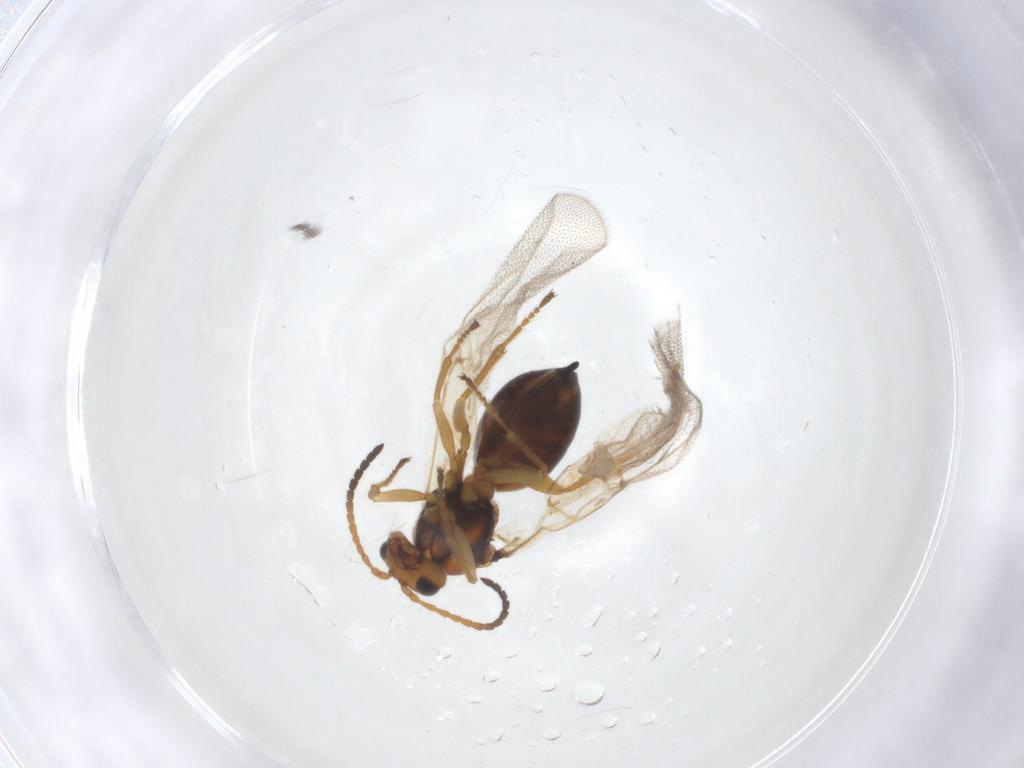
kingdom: Animalia
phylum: Arthropoda
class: Insecta
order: Hymenoptera
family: Cynipidae
